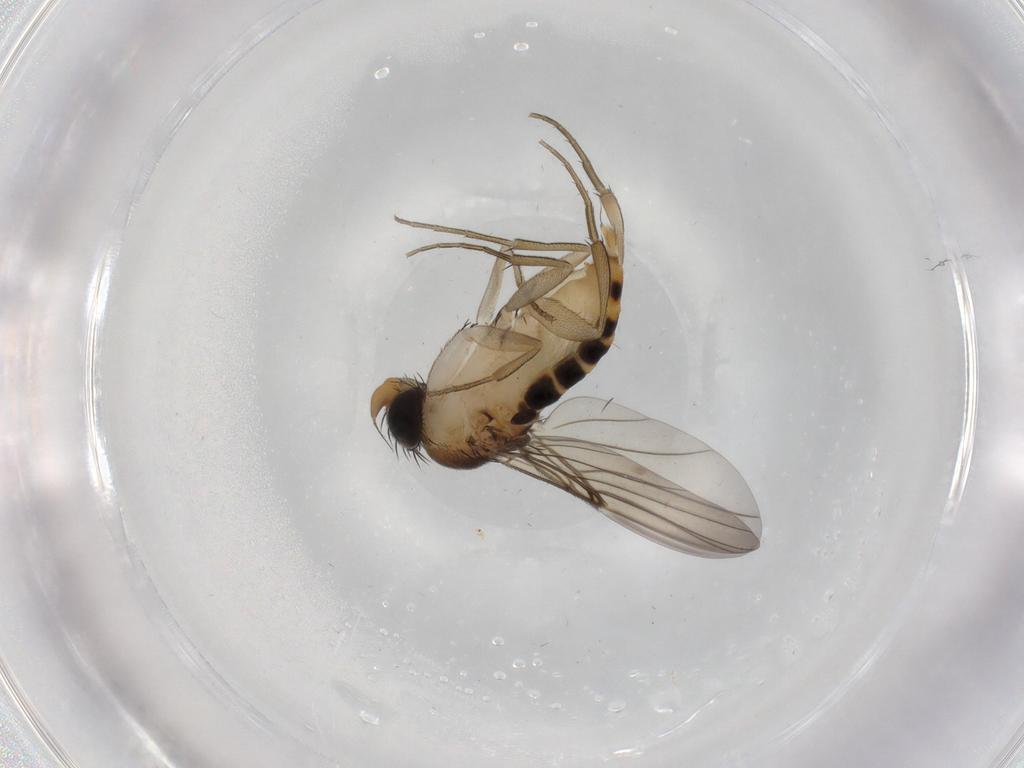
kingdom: Animalia
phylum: Arthropoda
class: Insecta
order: Diptera
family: Phoridae
